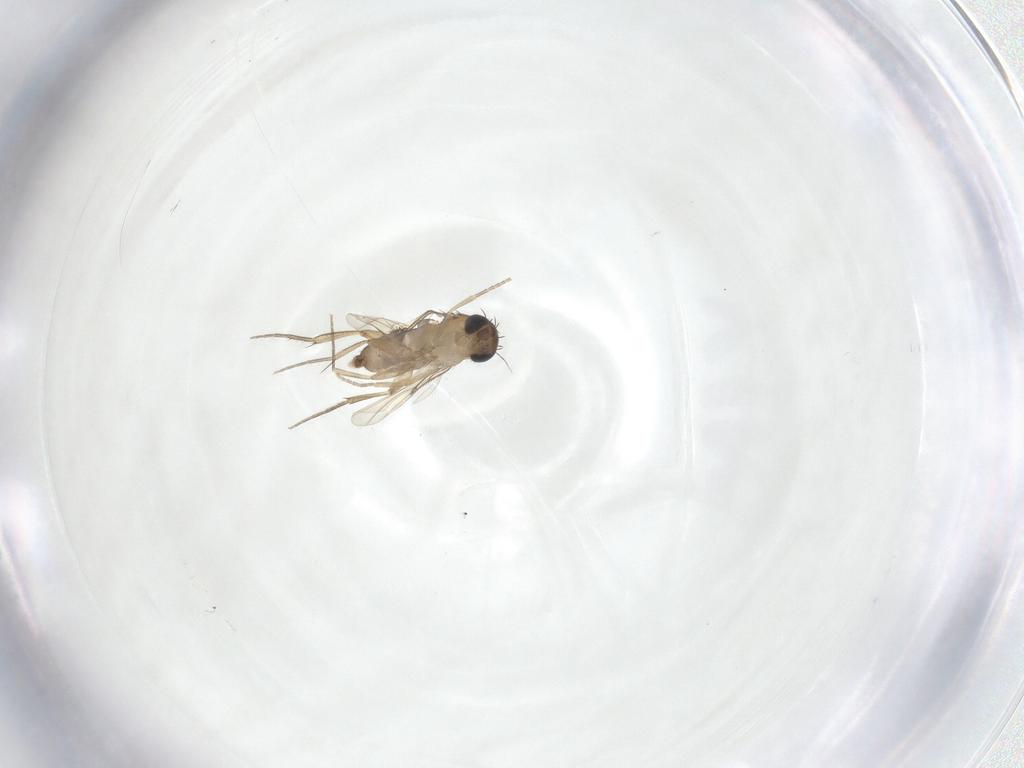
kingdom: Animalia
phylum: Arthropoda
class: Insecta
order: Diptera
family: Phoridae
